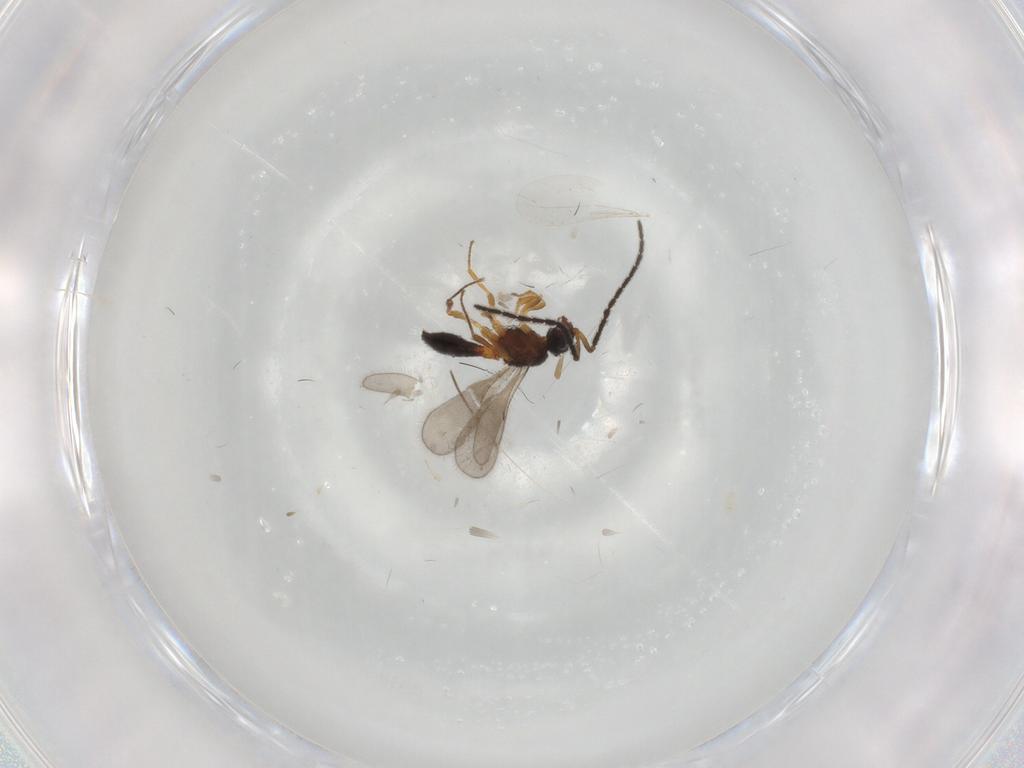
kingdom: Animalia
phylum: Arthropoda
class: Insecta
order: Hymenoptera
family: Scelionidae
